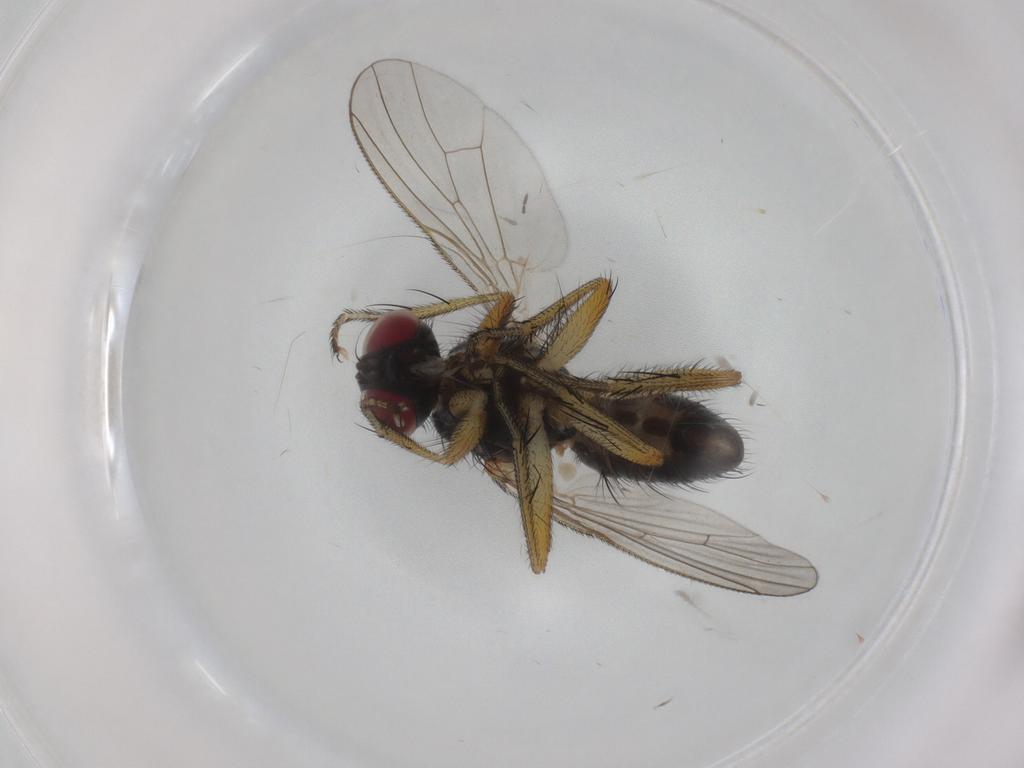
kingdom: Animalia
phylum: Arthropoda
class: Insecta
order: Diptera
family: Muscidae
